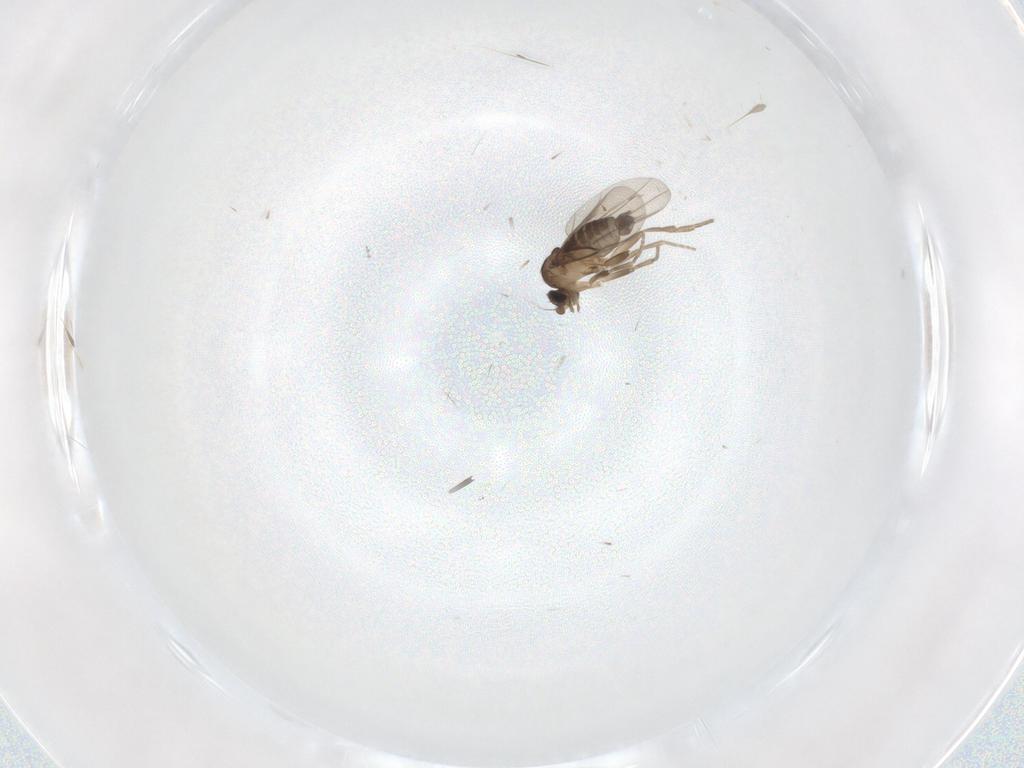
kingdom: Animalia
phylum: Arthropoda
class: Insecta
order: Diptera
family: Phoridae
